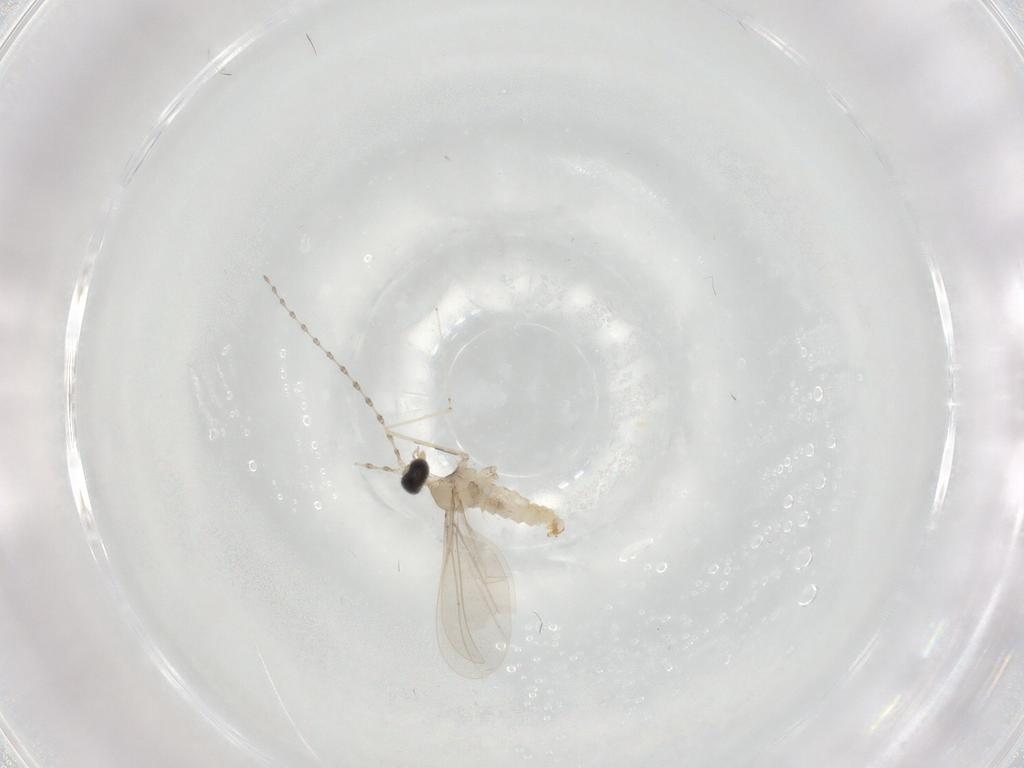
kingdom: Animalia
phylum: Arthropoda
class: Insecta
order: Diptera
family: Cecidomyiidae
